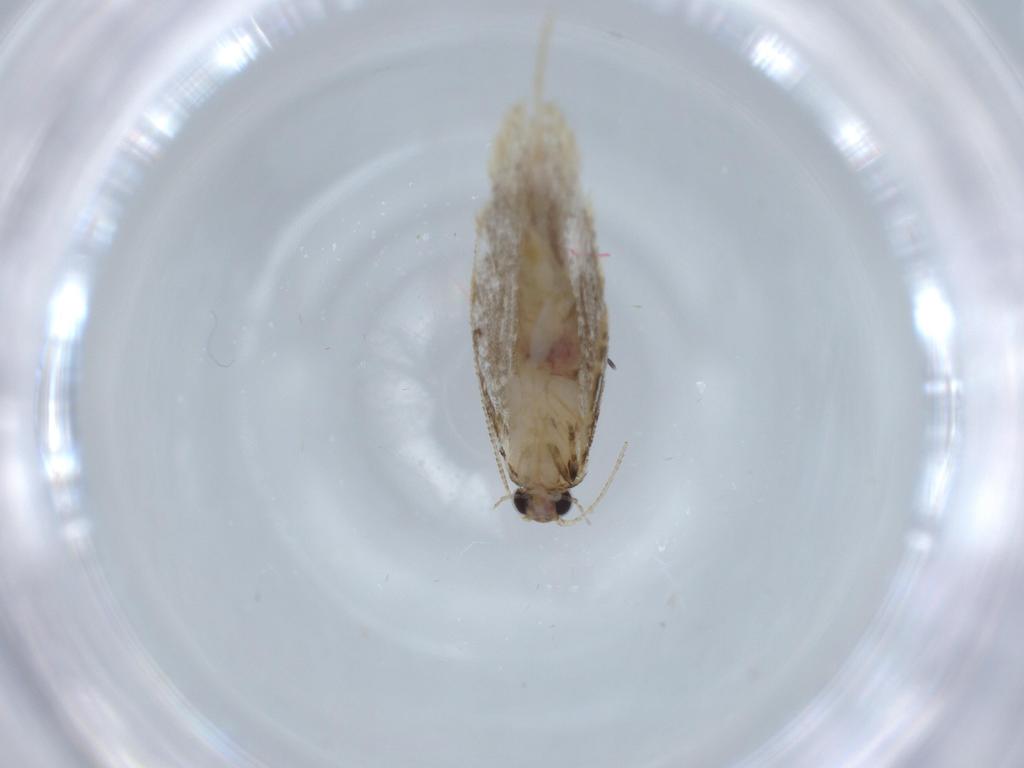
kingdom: Animalia
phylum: Arthropoda
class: Insecta
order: Lepidoptera
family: Tineidae
